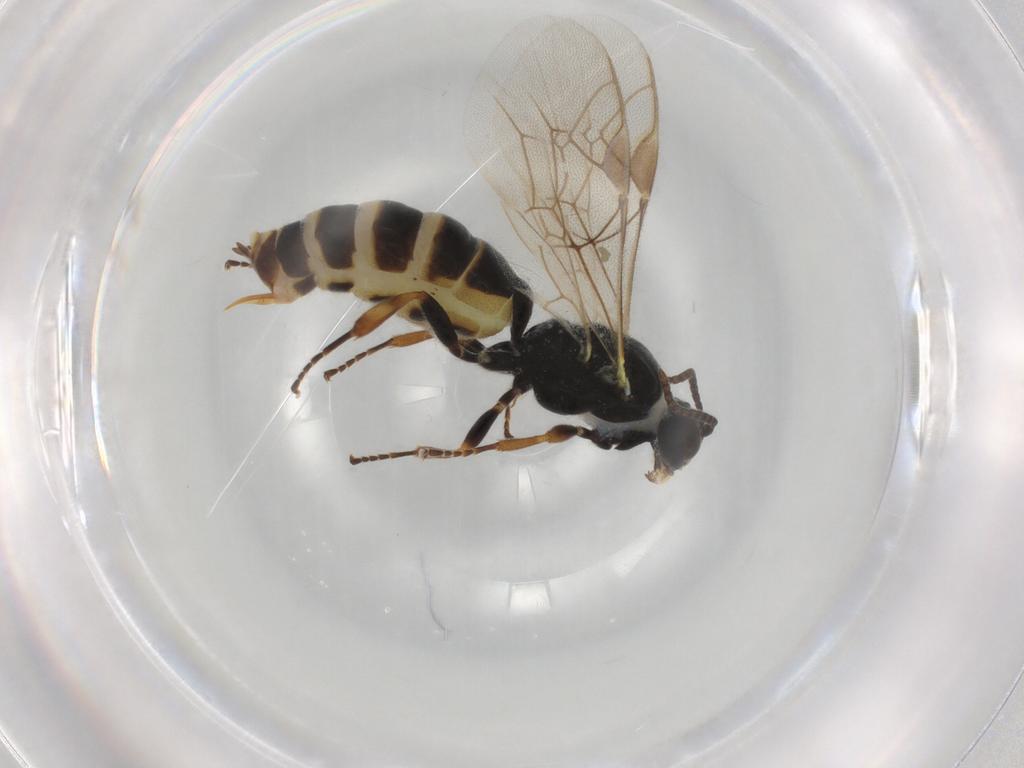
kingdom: Animalia
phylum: Arthropoda
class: Insecta
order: Hymenoptera
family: Ichneumonidae
